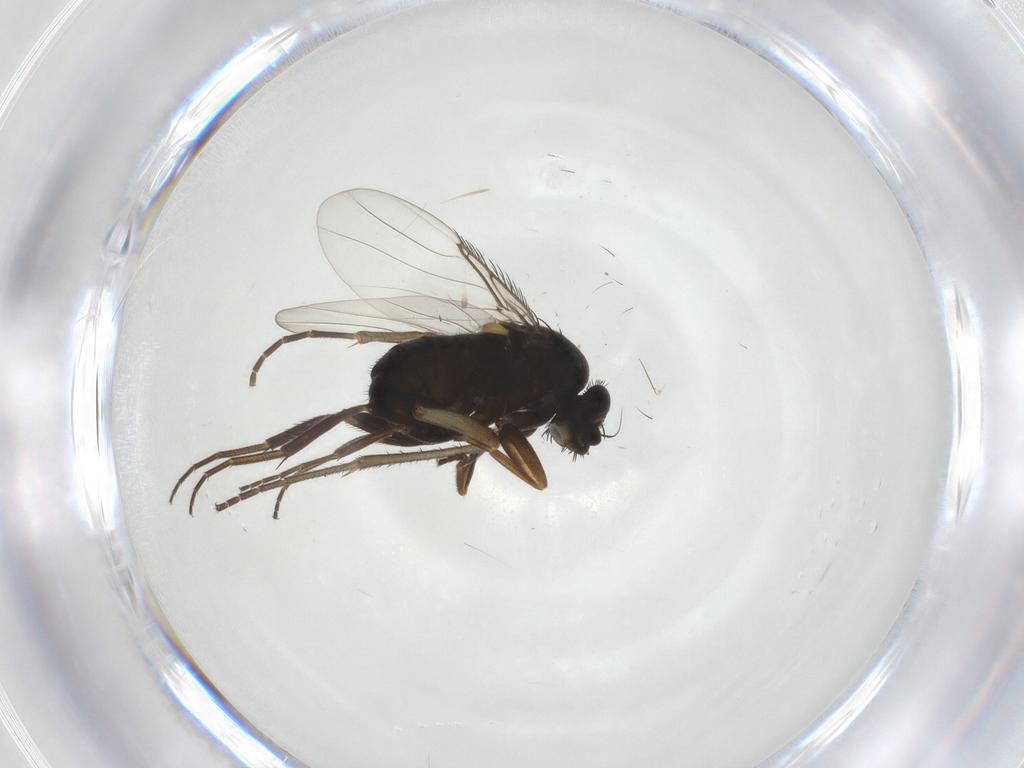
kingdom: Animalia
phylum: Arthropoda
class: Insecta
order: Diptera
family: Phoridae
